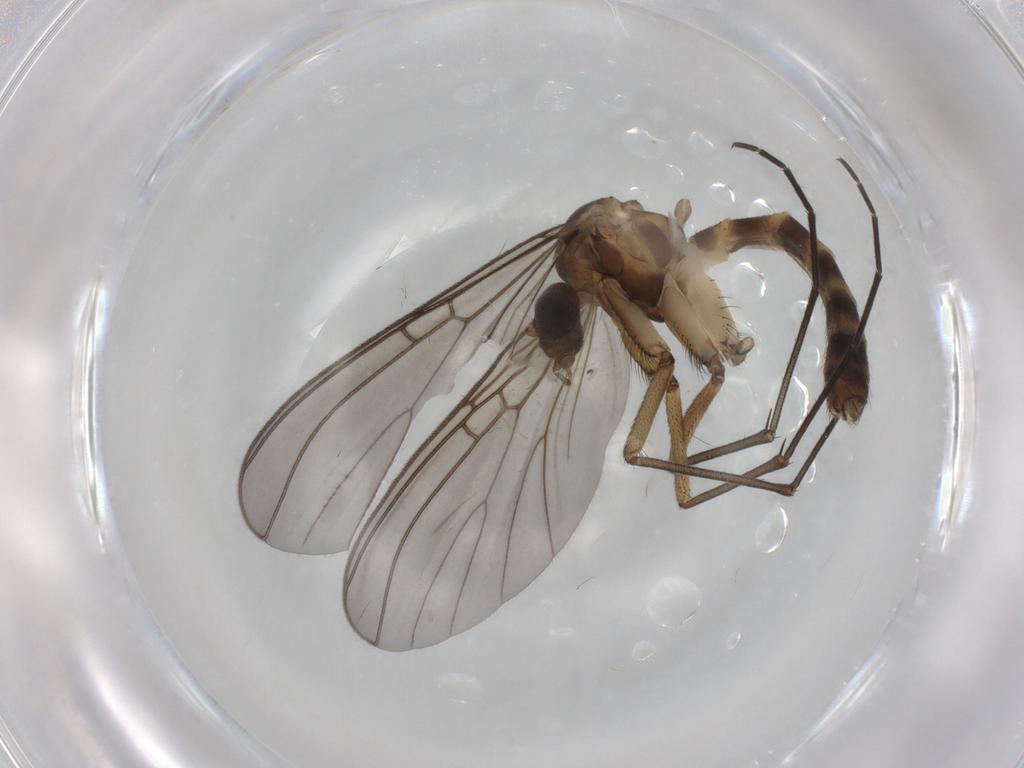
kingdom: Animalia
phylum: Arthropoda
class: Insecta
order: Diptera
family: Sciaridae
